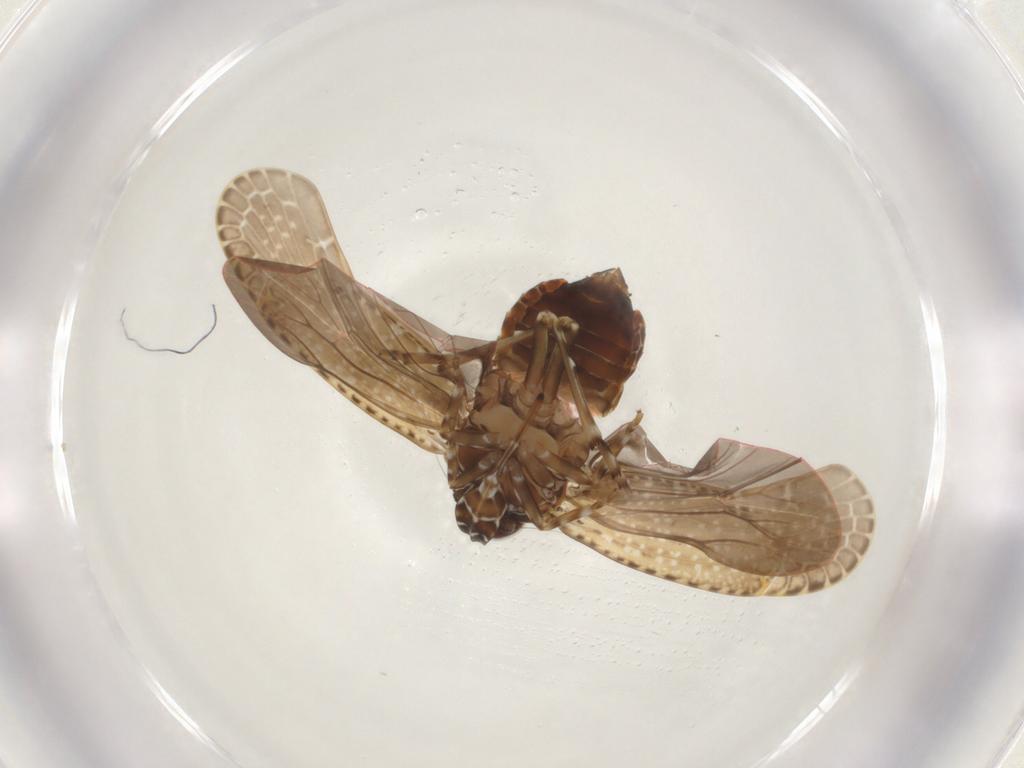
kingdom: Animalia
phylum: Arthropoda
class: Insecta
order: Hemiptera
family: Achilidae
